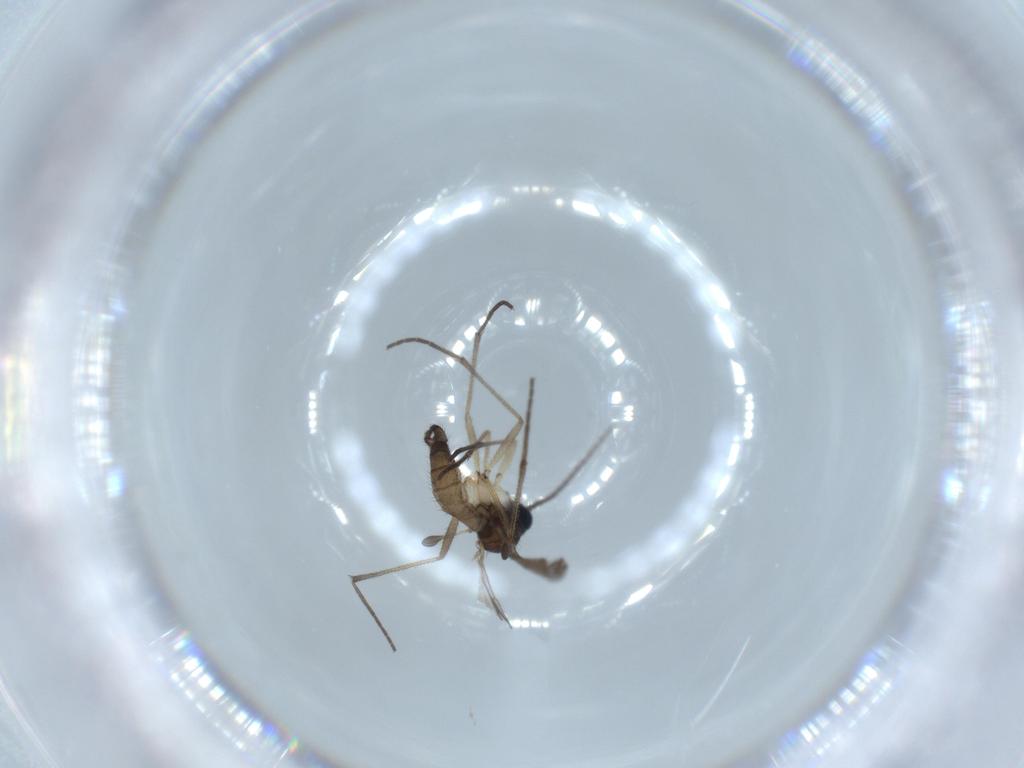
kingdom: Animalia
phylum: Arthropoda
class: Insecta
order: Diptera
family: Sciaridae
